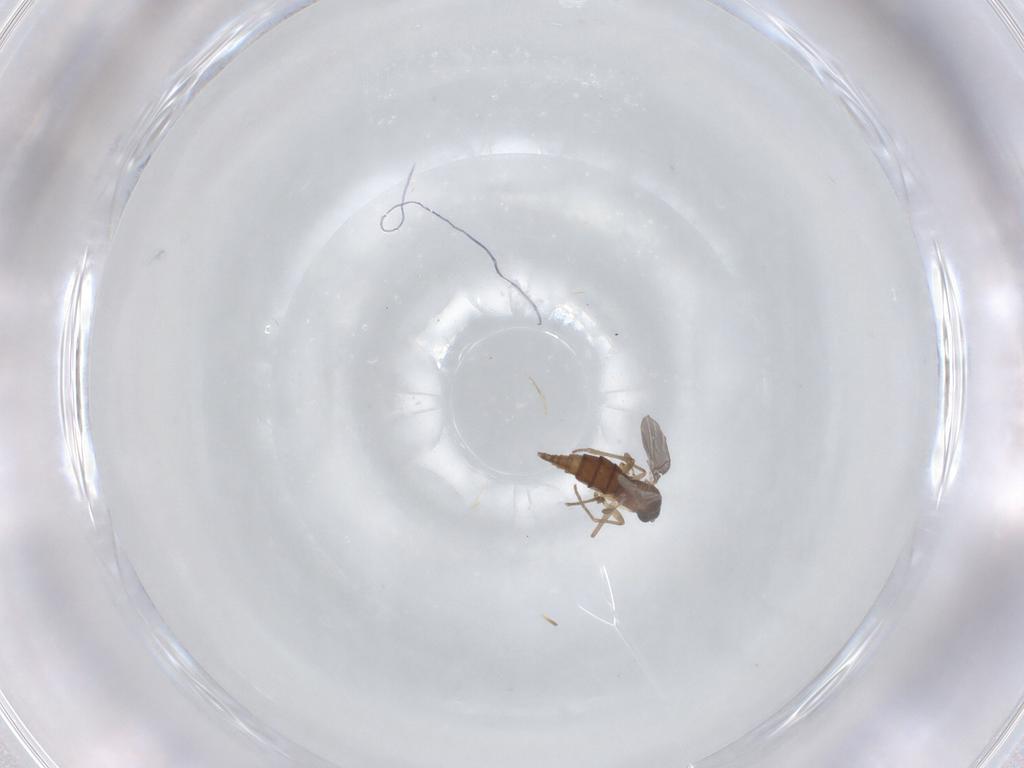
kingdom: Animalia
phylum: Arthropoda
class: Insecta
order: Diptera
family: Sciaridae
